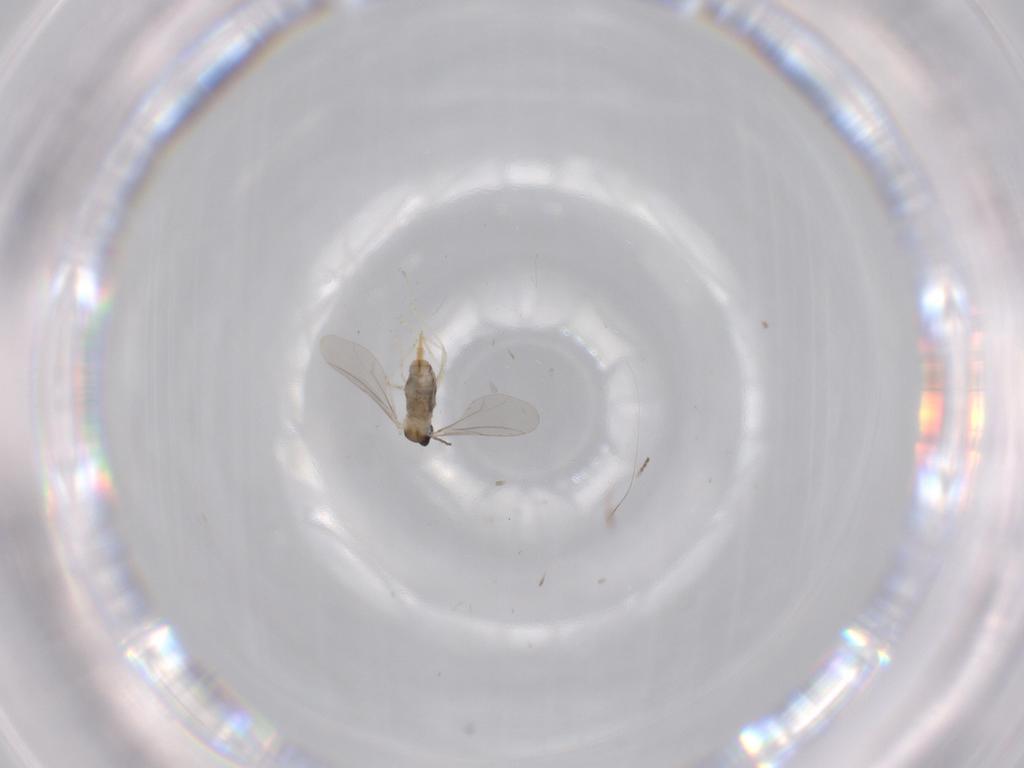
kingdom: Animalia
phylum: Arthropoda
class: Insecta
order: Diptera
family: Cecidomyiidae
